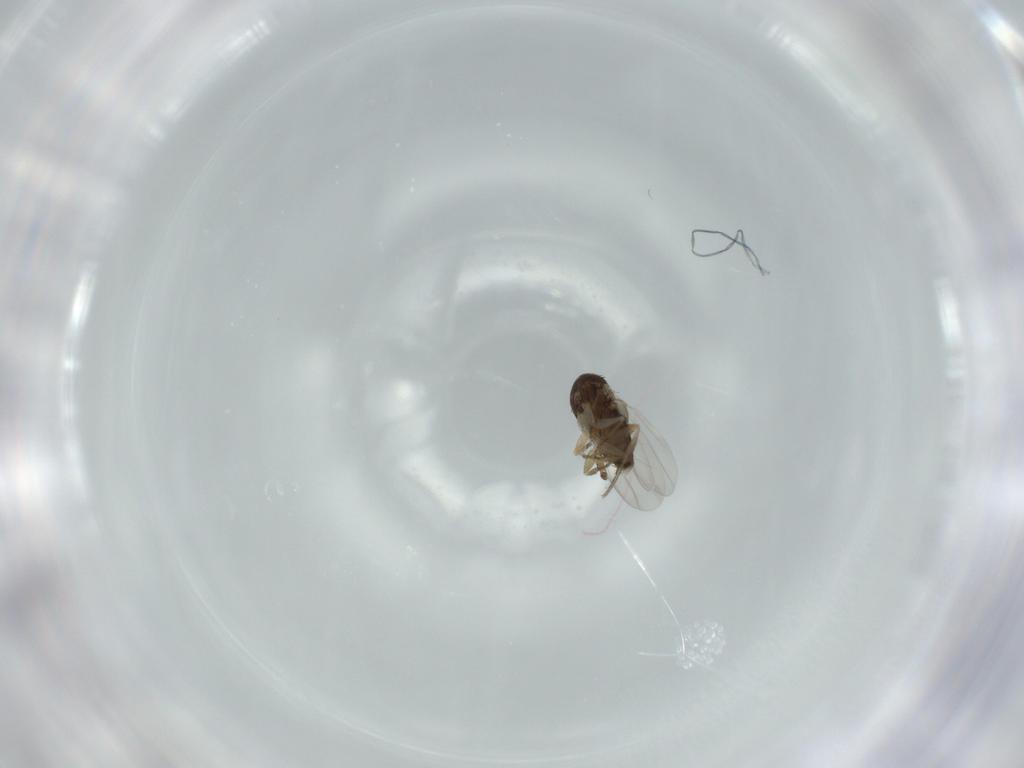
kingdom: Animalia
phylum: Arthropoda
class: Insecta
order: Diptera
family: Phoridae
